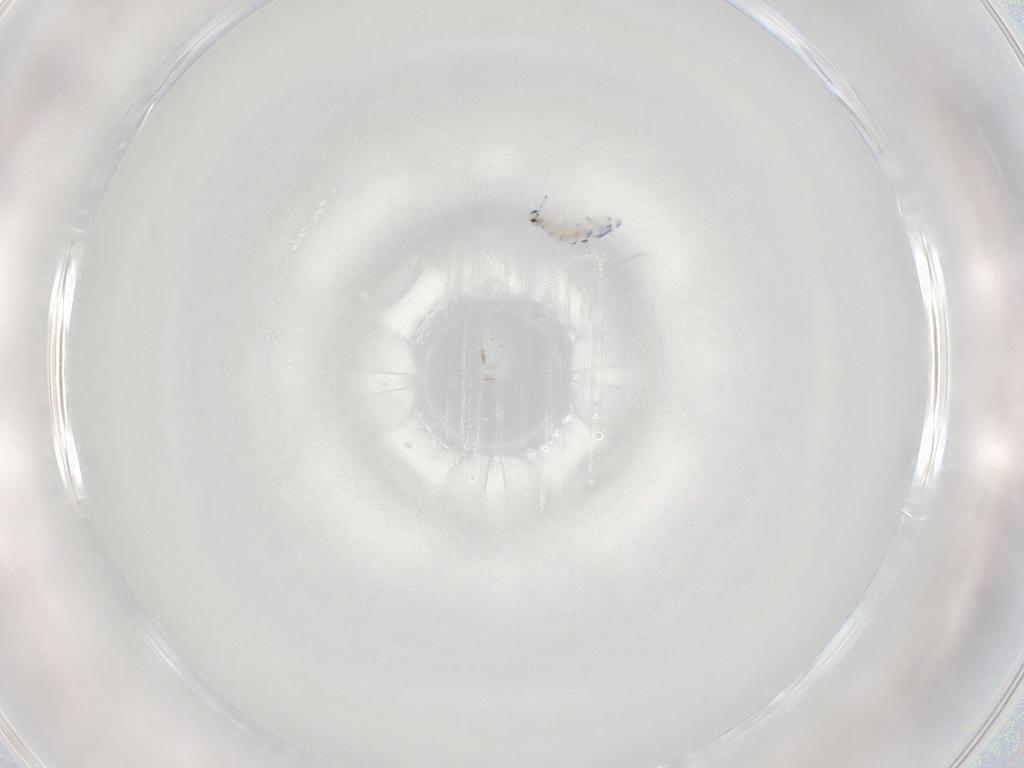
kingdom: Animalia
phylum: Arthropoda
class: Collembola
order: Entomobryomorpha
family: Entomobryidae
